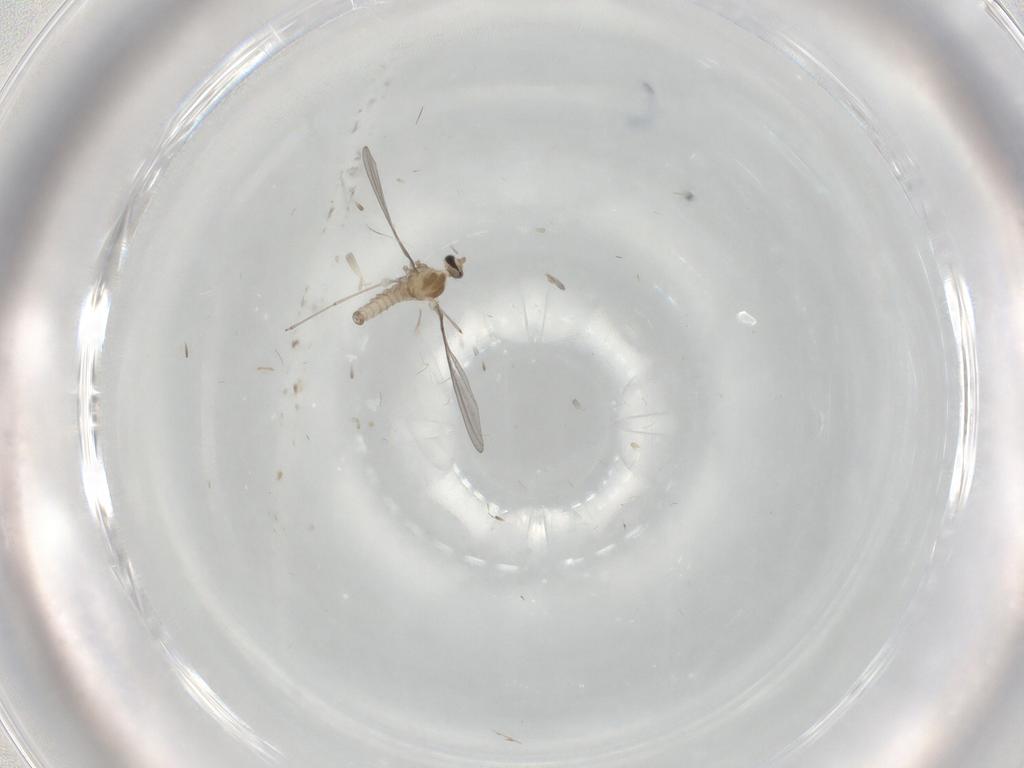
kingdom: Animalia
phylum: Arthropoda
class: Insecta
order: Diptera
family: Cecidomyiidae
